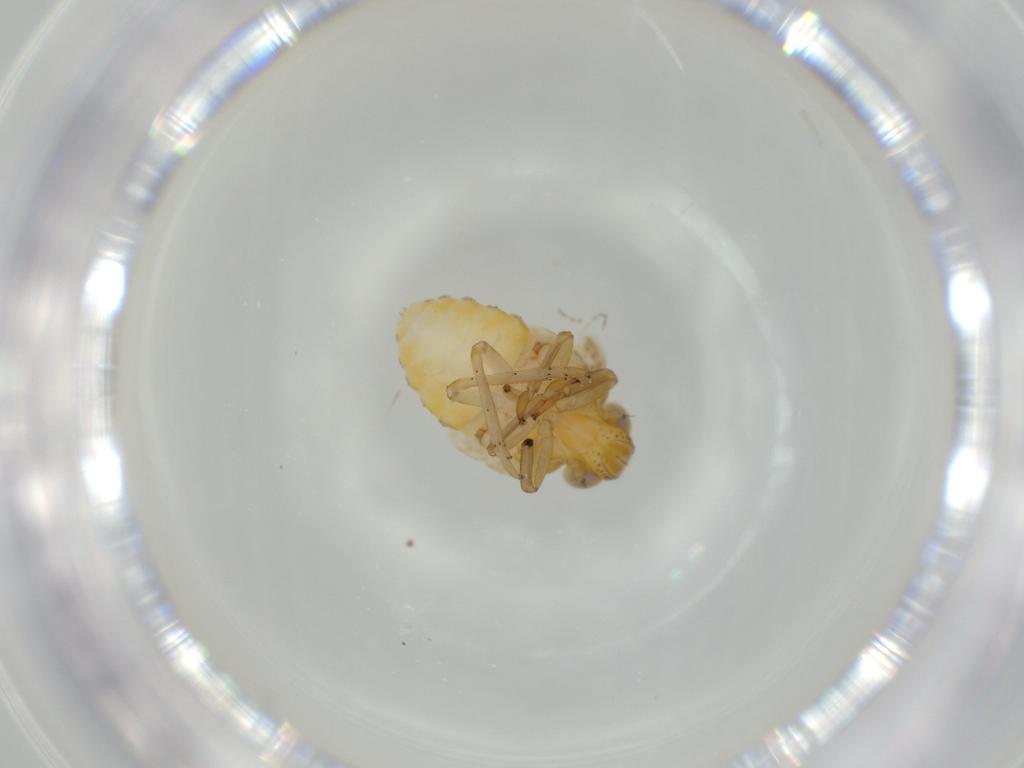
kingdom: Animalia
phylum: Arthropoda
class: Insecta
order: Hemiptera
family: Issidae
